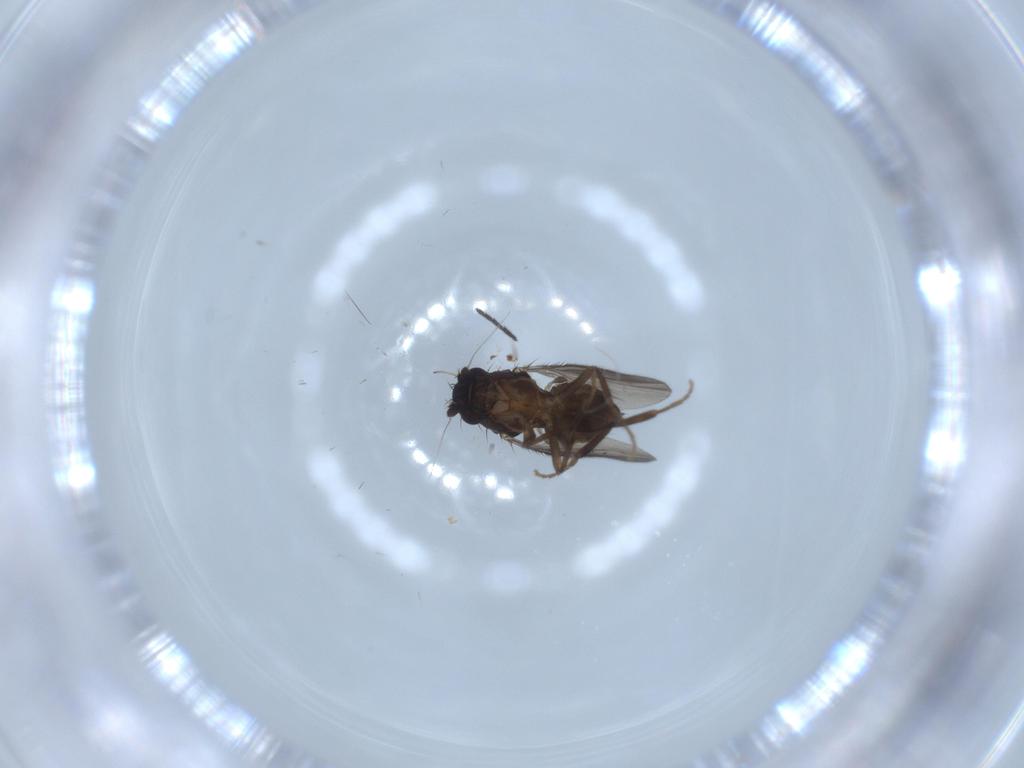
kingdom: Animalia
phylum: Arthropoda
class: Insecta
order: Diptera
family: Sphaeroceridae
